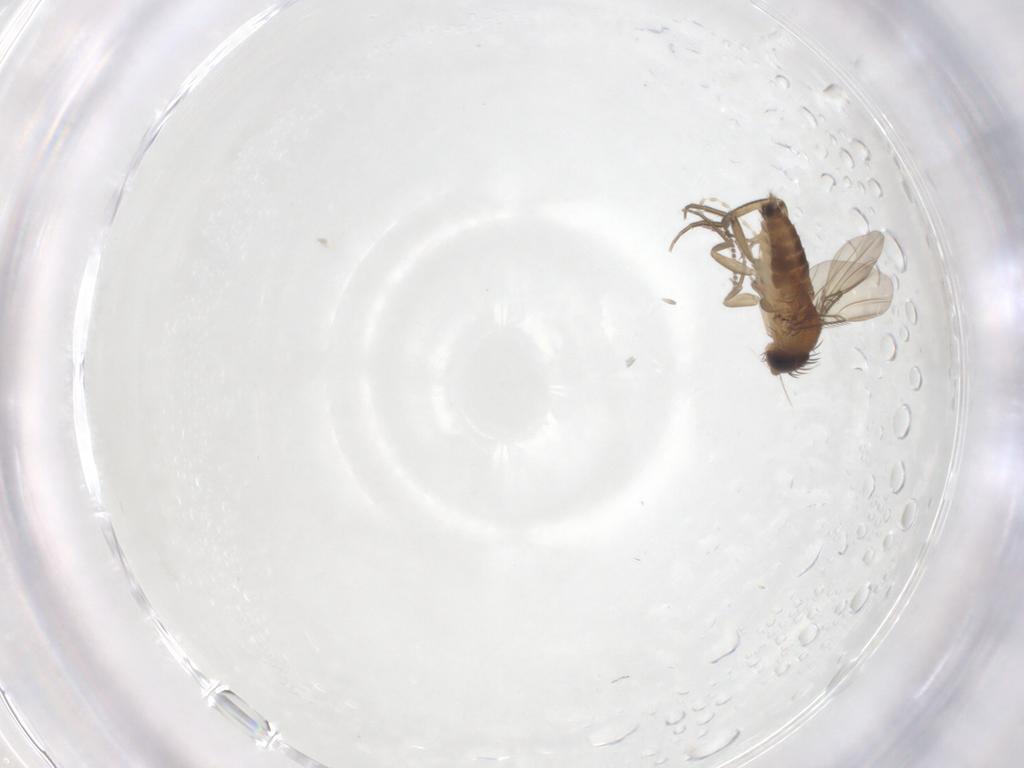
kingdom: Animalia
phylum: Arthropoda
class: Insecta
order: Diptera
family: Phoridae
